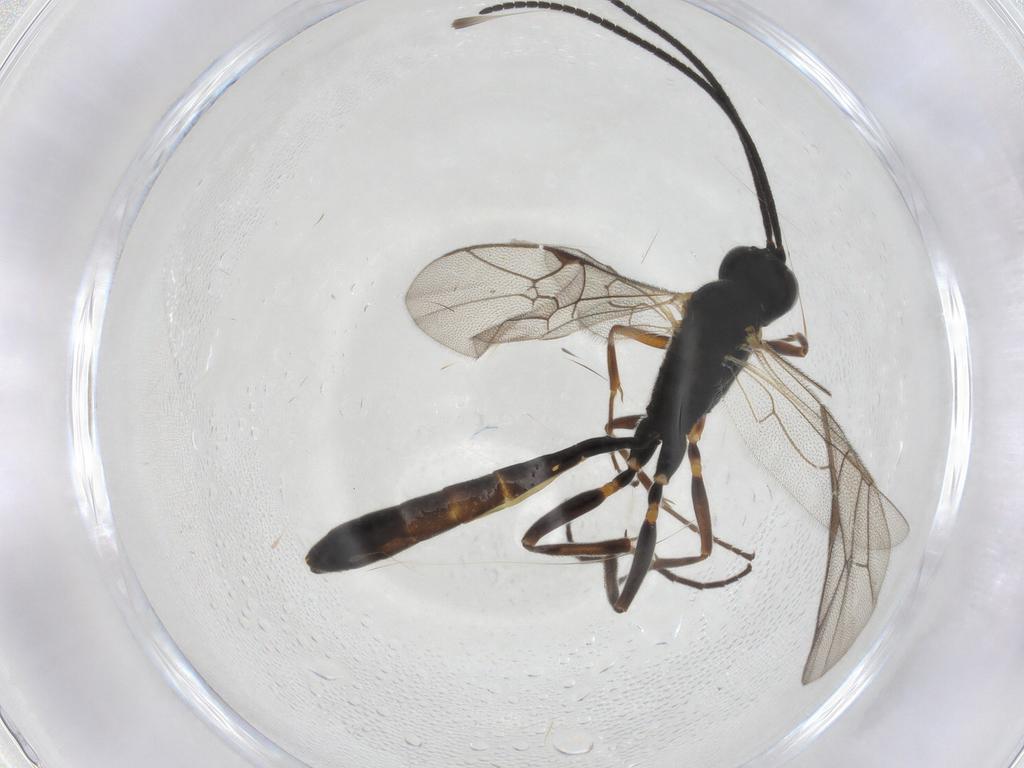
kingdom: Animalia
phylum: Arthropoda
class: Insecta
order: Hymenoptera
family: Ichneumonidae
